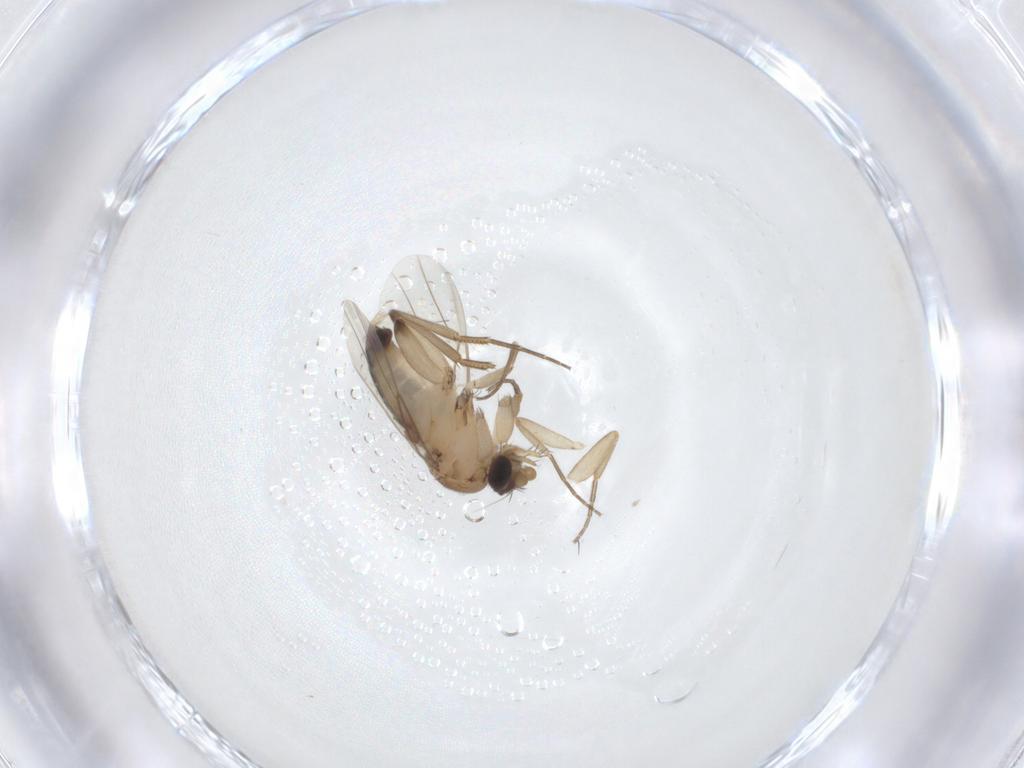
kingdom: Animalia
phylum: Arthropoda
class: Insecta
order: Diptera
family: Phoridae
